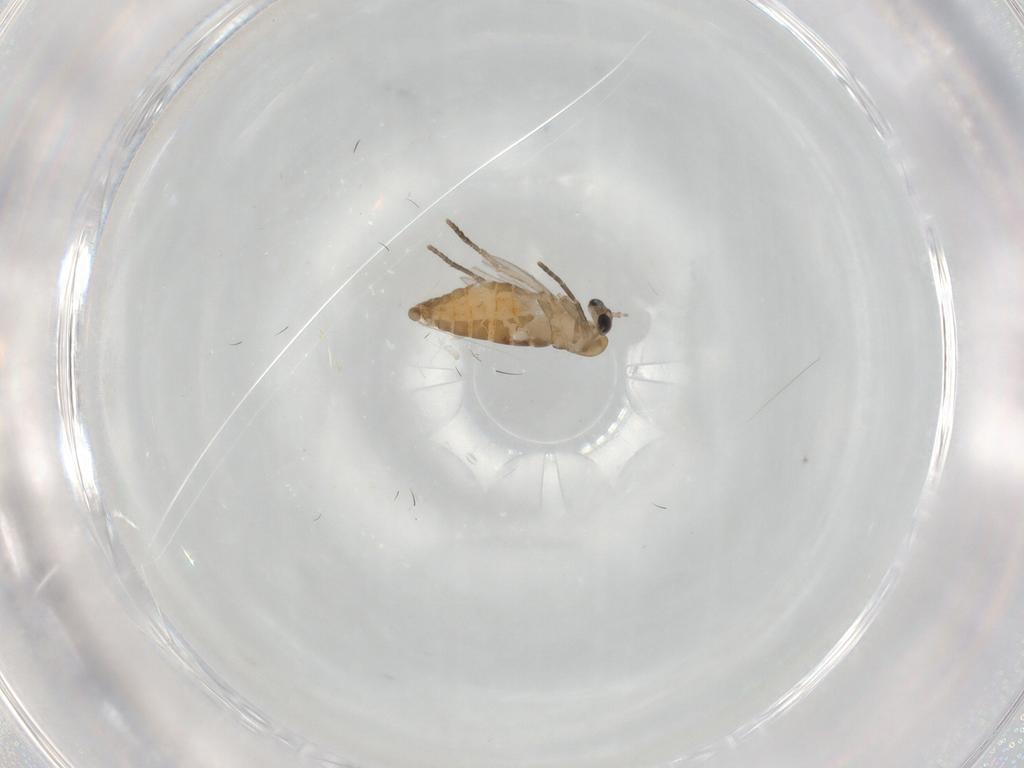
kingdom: Animalia
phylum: Arthropoda
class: Insecta
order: Diptera
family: Psychodidae
